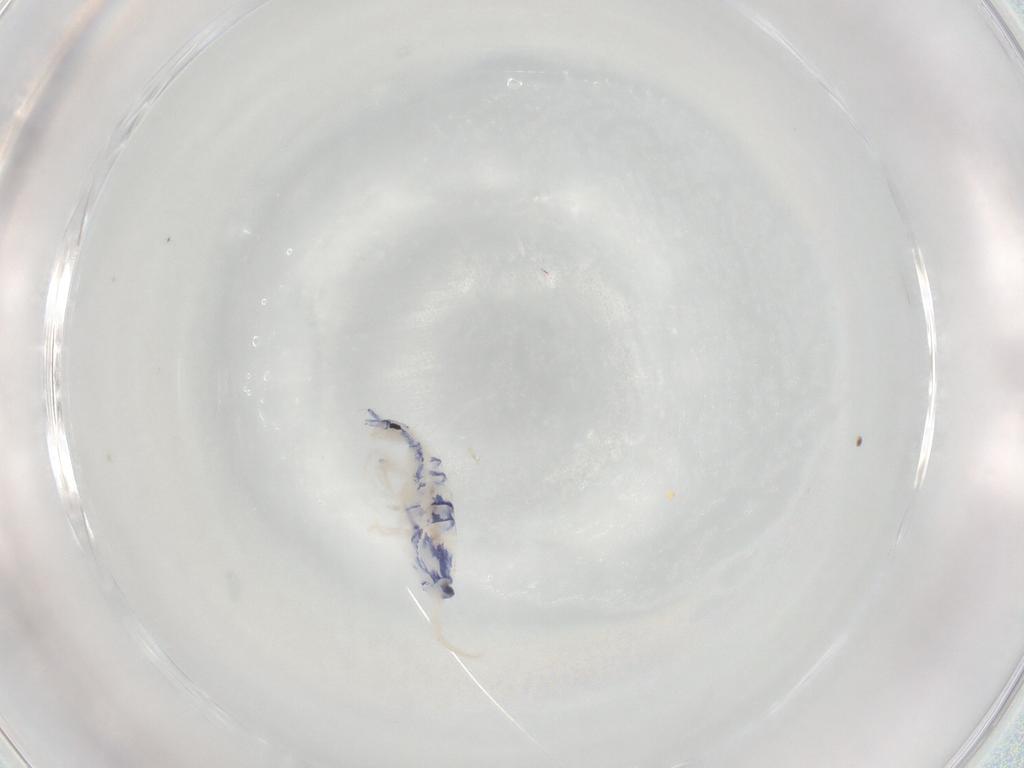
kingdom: Animalia
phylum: Arthropoda
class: Collembola
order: Entomobryomorpha
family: Entomobryidae
